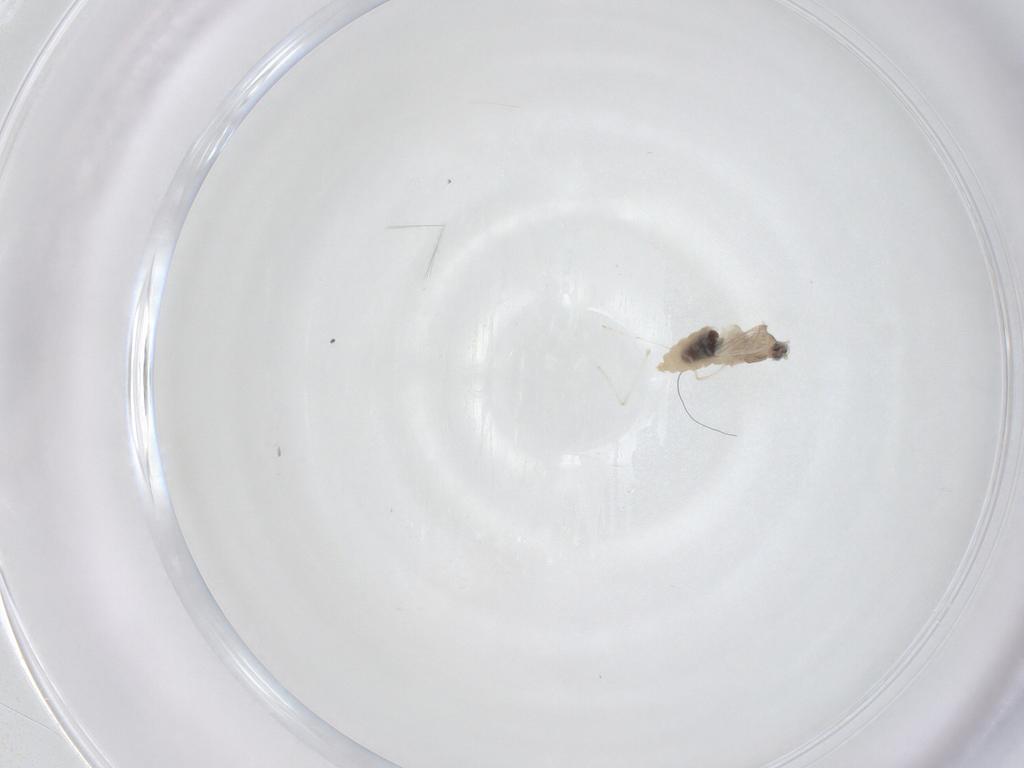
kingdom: Animalia
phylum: Arthropoda
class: Insecta
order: Diptera
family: Cecidomyiidae
